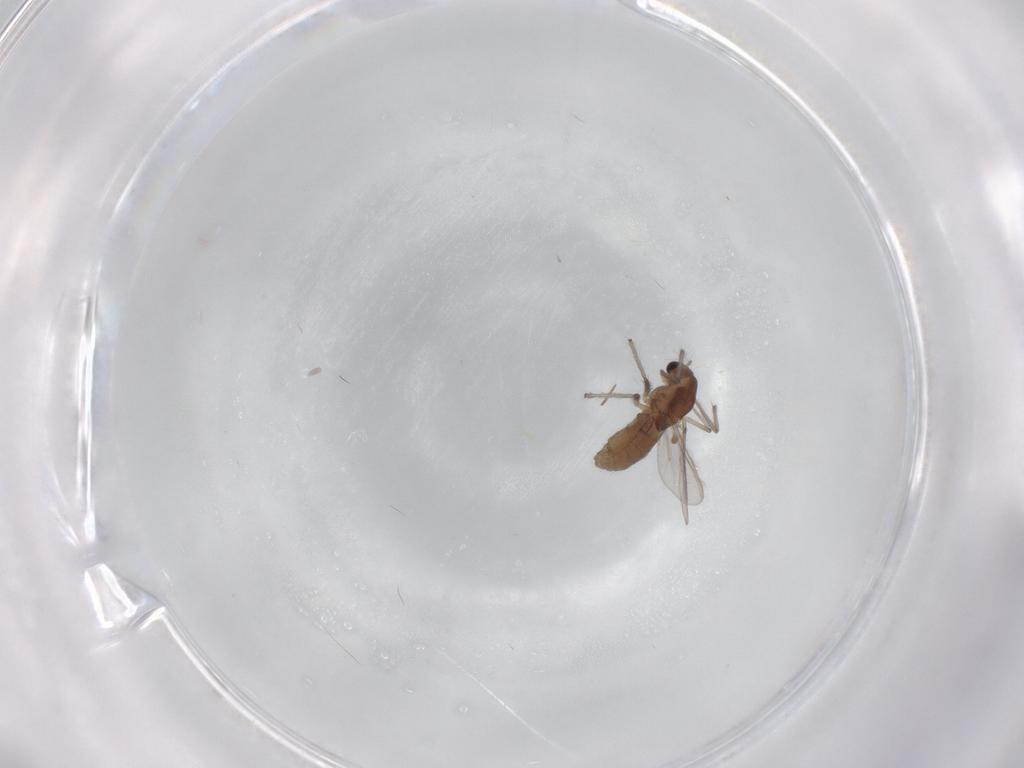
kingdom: Animalia
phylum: Arthropoda
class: Insecta
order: Diptera
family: Chironomidae
